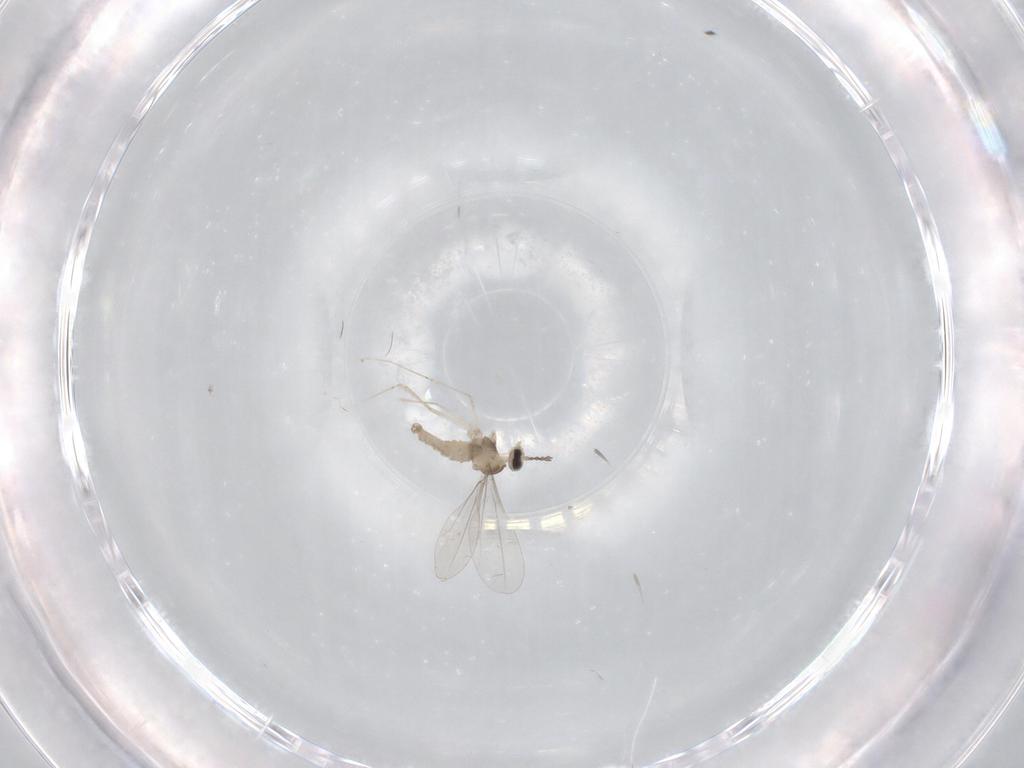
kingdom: Animalia
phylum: Arthropoda
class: Insecta
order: Diptera
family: Cecidomyiidae
